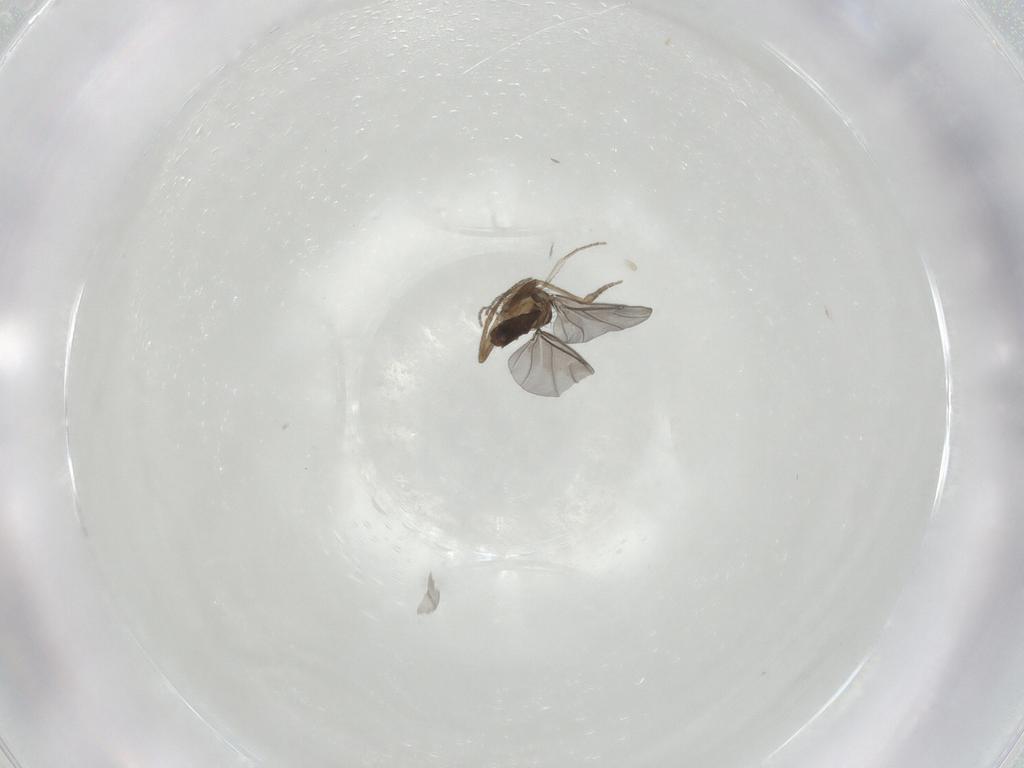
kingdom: Animalia
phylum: Arthropoda
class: Insecta
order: Diptera
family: Phoridae
